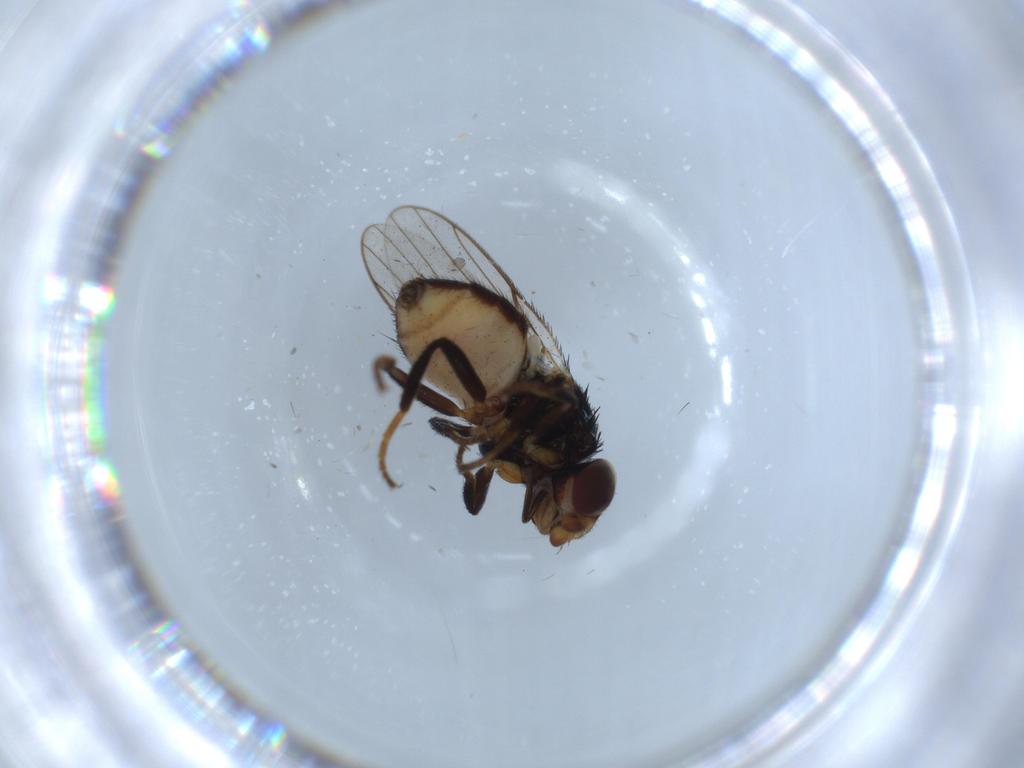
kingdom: Animalia
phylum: Arthropoda
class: Insecta
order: Diptera
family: Chloropidae
